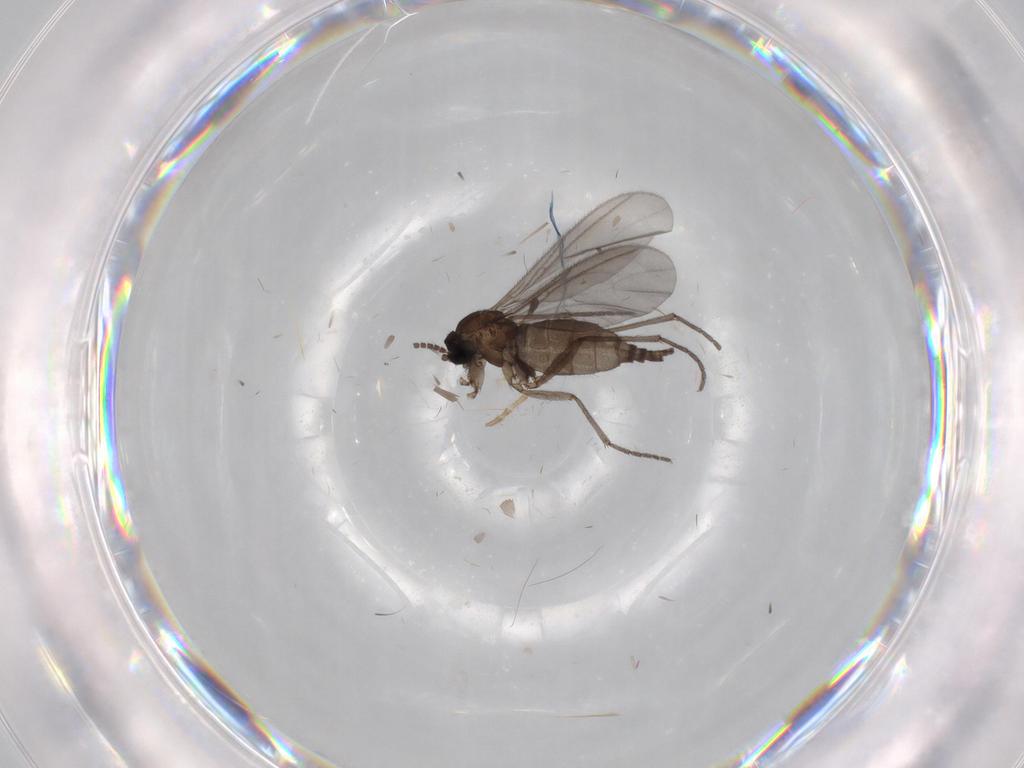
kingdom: Animalia
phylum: Arthropoda
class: Insecta
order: Diptera
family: Sciaridae
